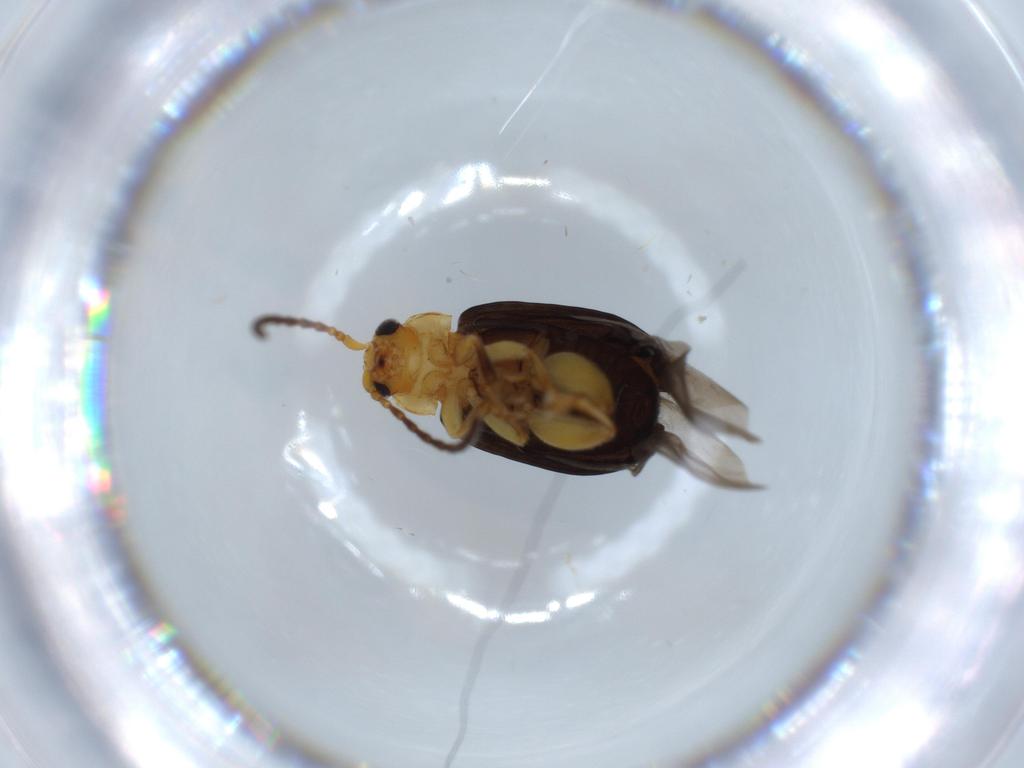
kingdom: Animalia
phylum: Arthropoda
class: Insecta
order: Coleoptera
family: Chrysomelidae
